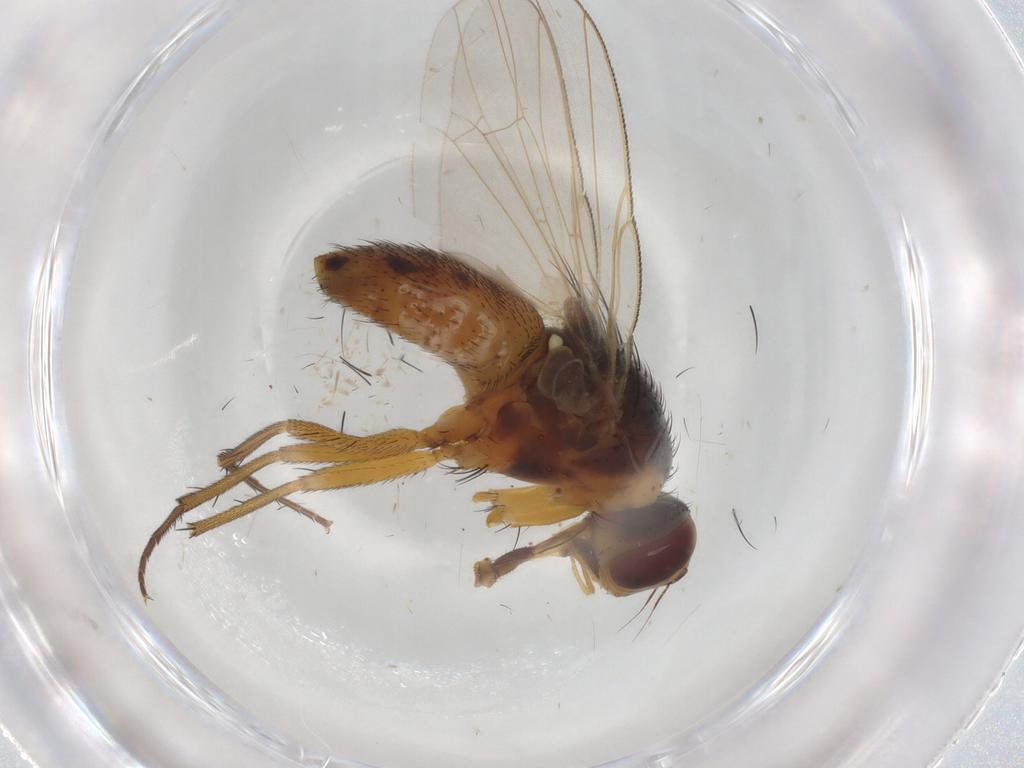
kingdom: Animalia
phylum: Arthropoda
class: Insecta
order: Diptera
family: Muscidae
